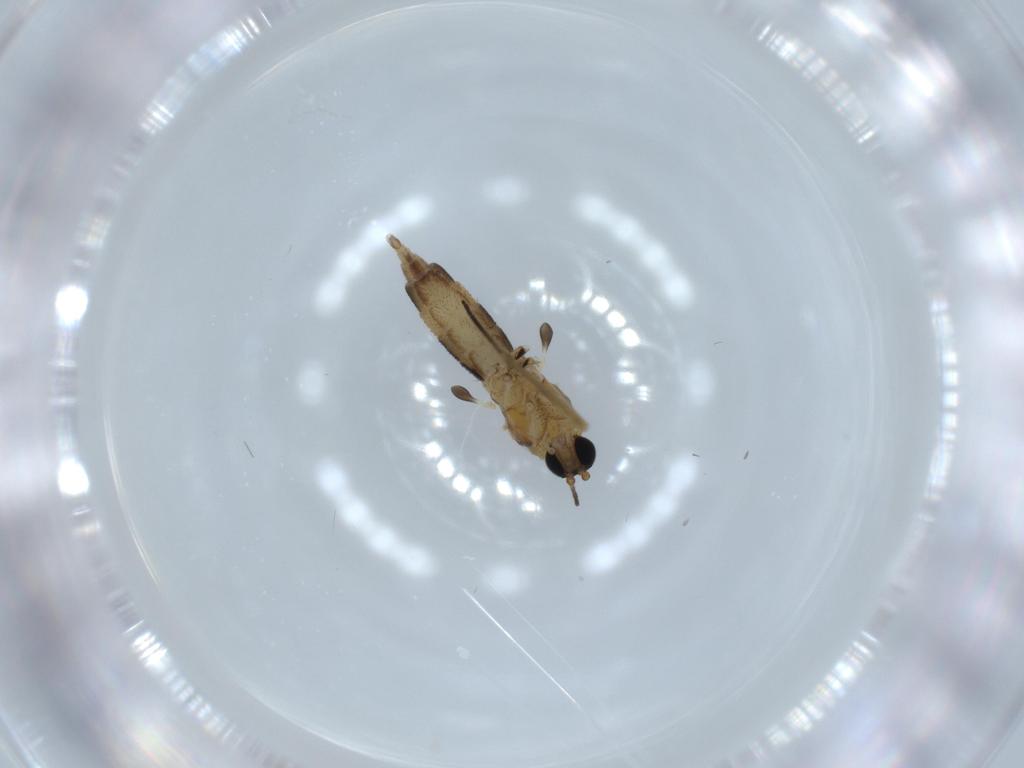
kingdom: Animalia
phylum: Arthropoda
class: Insecta
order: Diptera
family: Sciaridae
